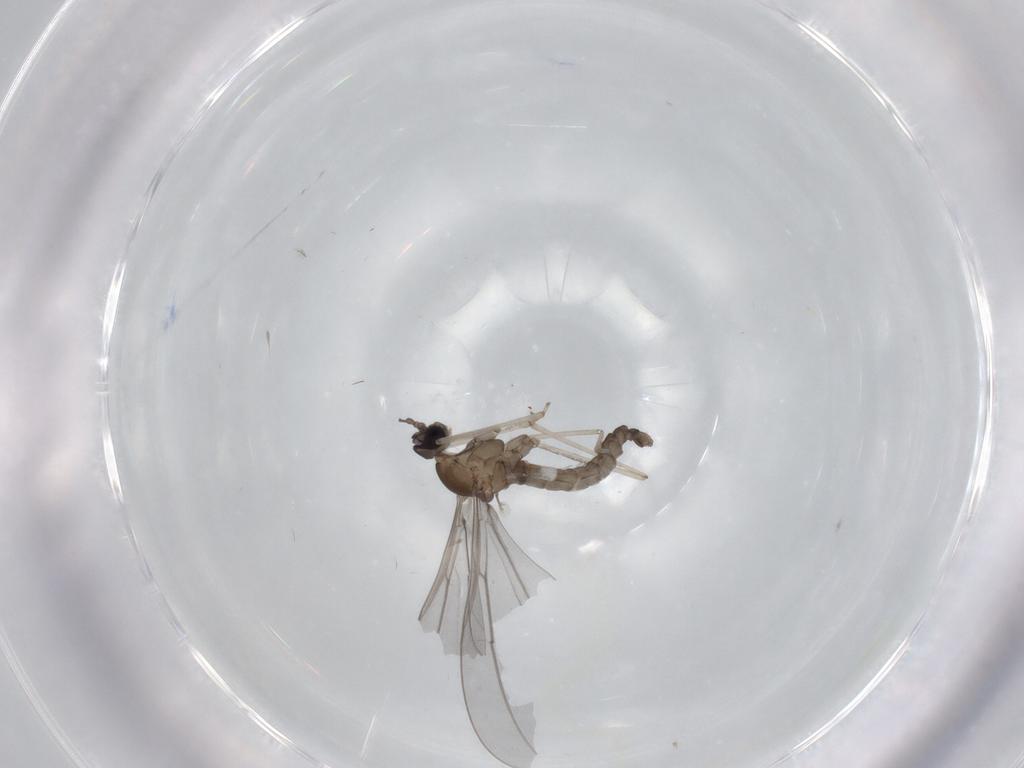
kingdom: Animalia
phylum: Arthropoda
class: Insecta
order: Diptera
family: Cecidomyiidae
